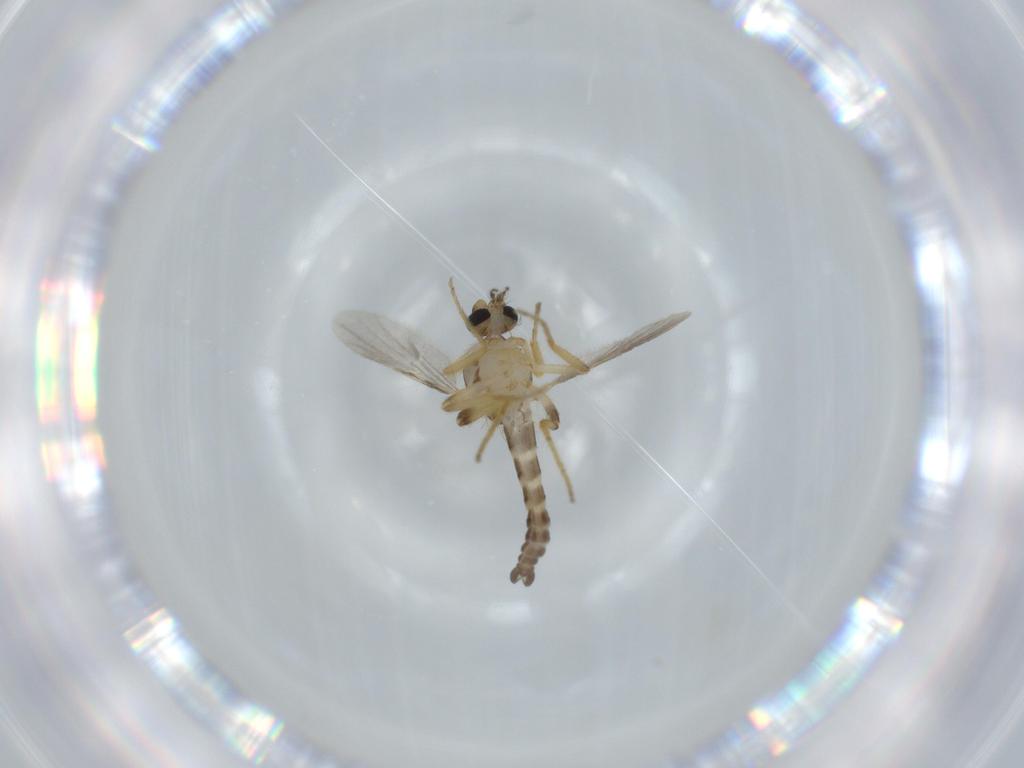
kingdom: Animalia
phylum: Arthropoda
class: Insecta
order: Diptera
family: Ceratopogonidae
